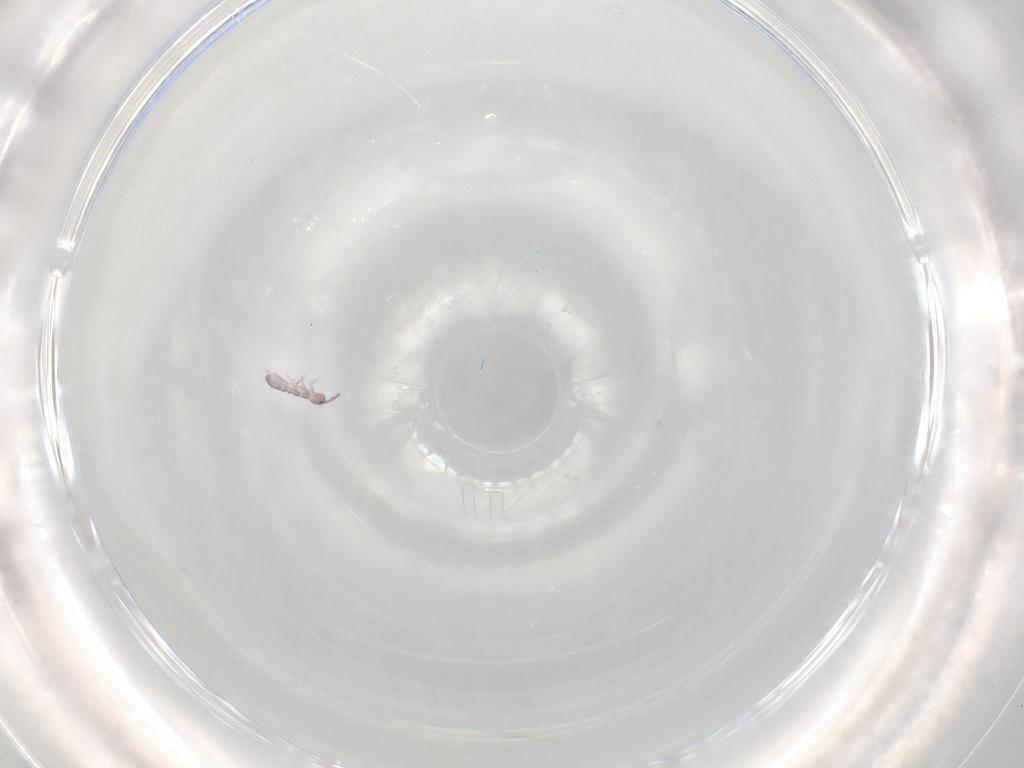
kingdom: Animalia
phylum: Arthropoda
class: Collembola
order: Entomobryomorpha
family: Isotomidae
